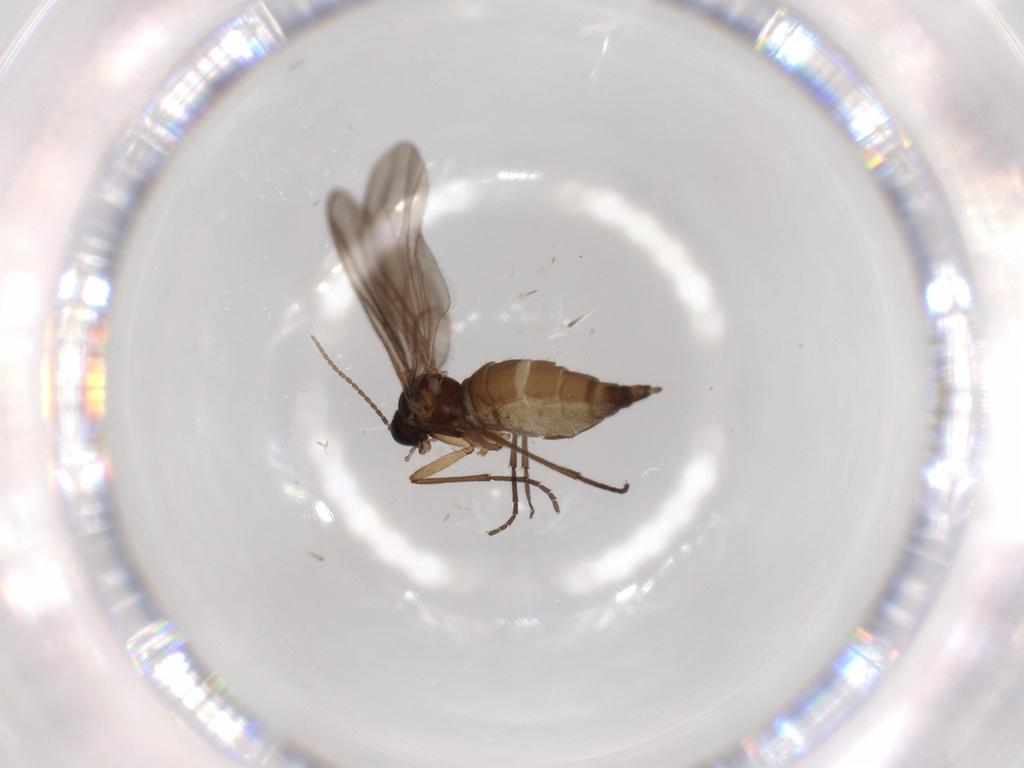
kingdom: Animalia
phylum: Arthropoda
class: Insecta
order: Diptera
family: Sciaridae
